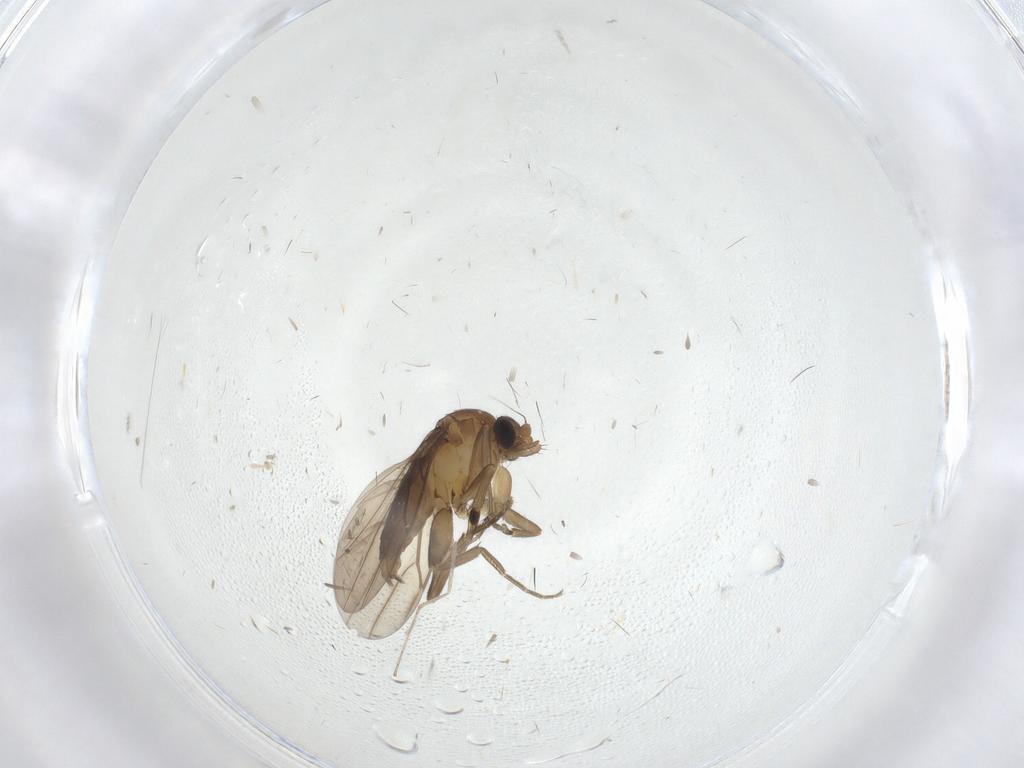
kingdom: Animalia
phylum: Arthropoda
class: Insecta
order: Diptera
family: Phoridae
